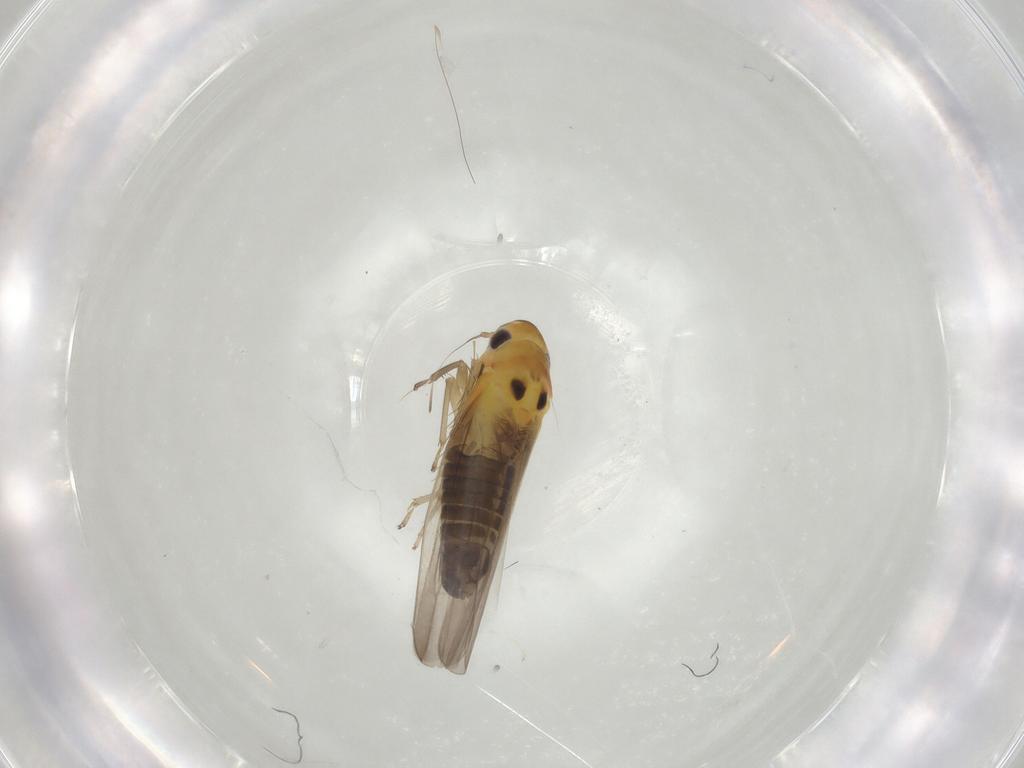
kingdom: Animalia
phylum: Arthropoda
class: Insecta
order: Hemiptera
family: Cicadellidae
